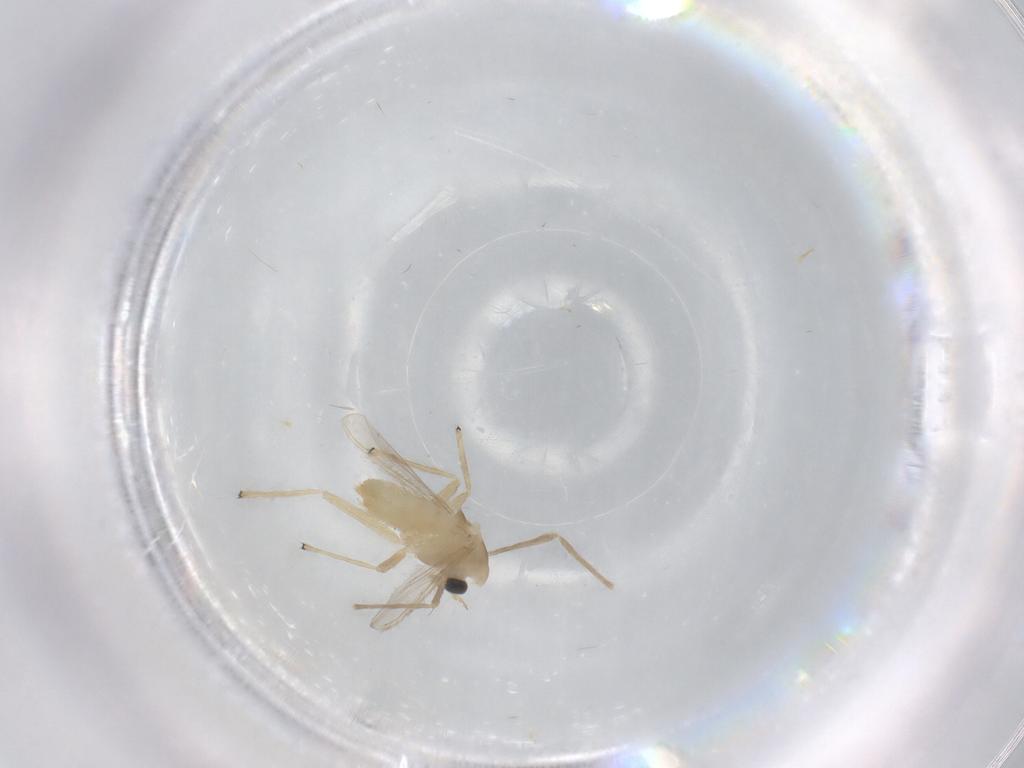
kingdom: Animalia
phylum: Arthropoda
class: Insecta
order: Diptera
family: Chironomidae
